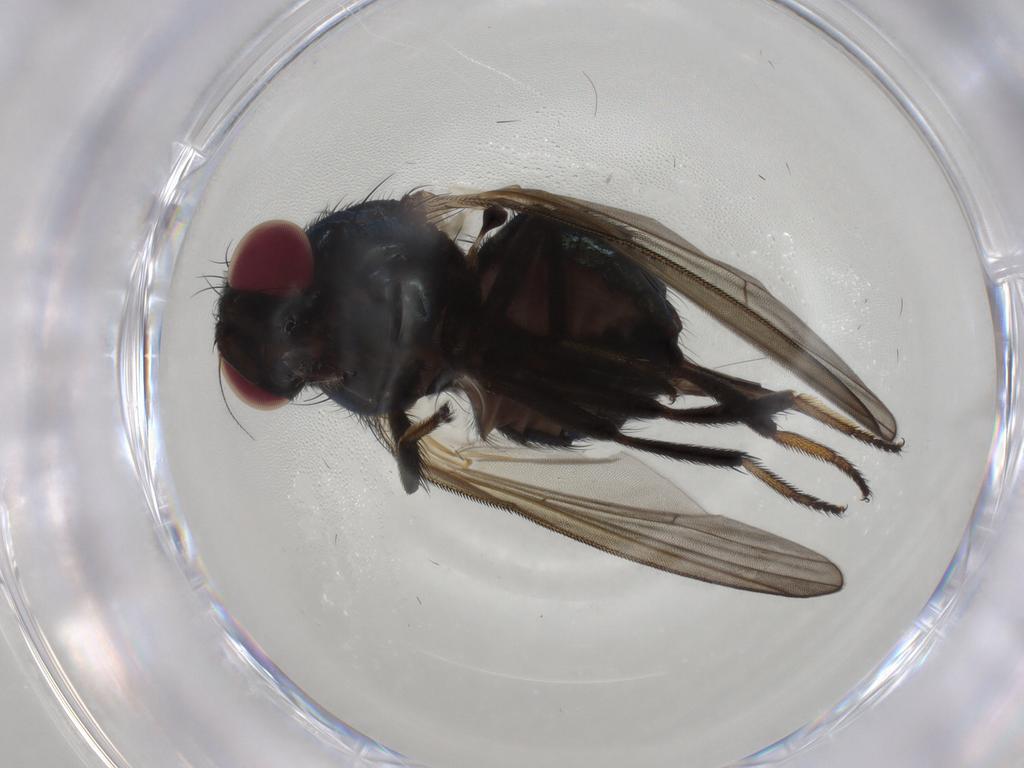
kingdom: Animalia
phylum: Arthropoda
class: Insecta
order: Diptera
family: Lonchaeidae
